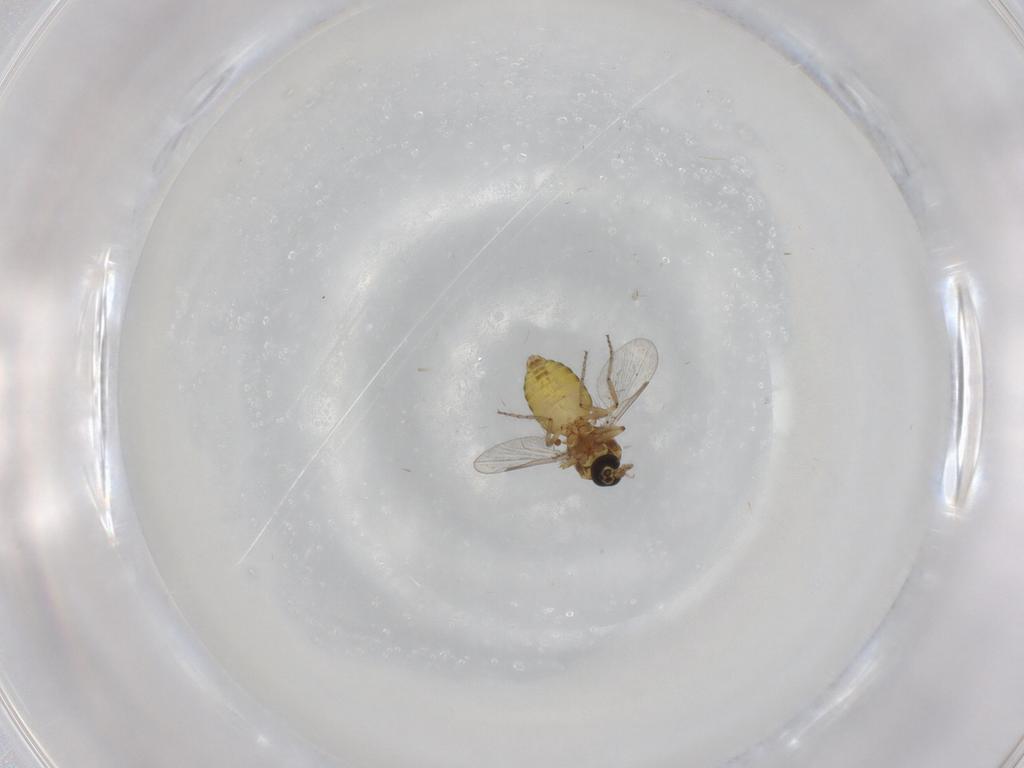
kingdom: Animalia
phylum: Arthropoda
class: Insecta
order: Diptera
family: Ceratopogonidae
